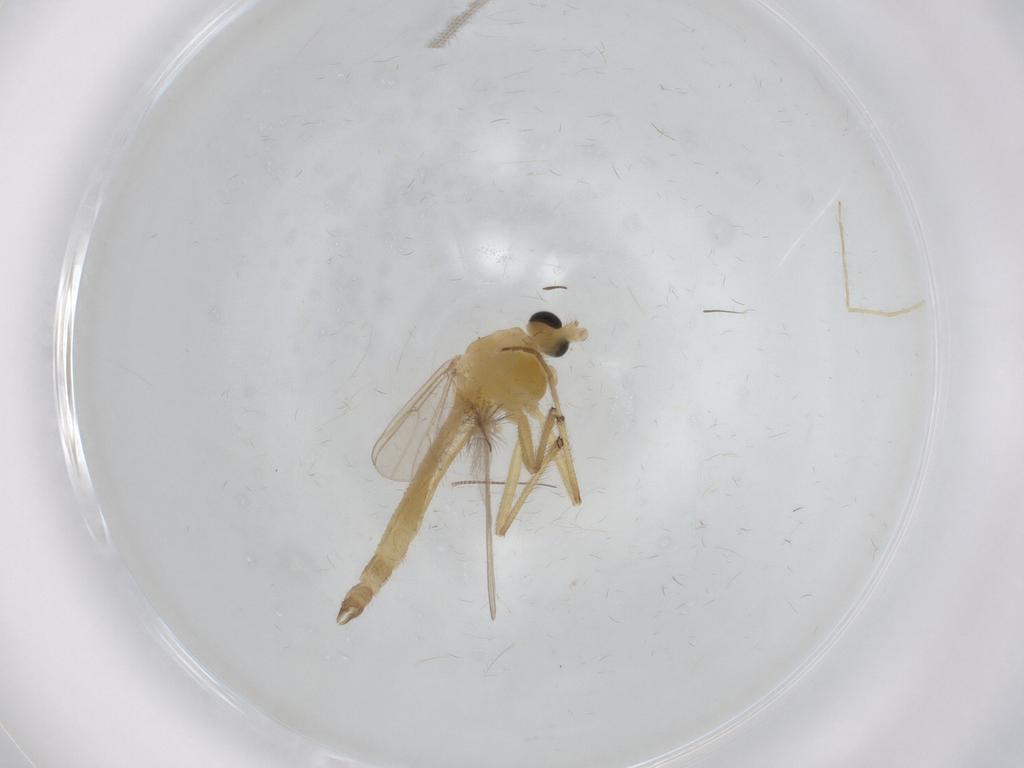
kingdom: Animalia
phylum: Arthropoda
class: Insecta
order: Diptera
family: Chironomidae
